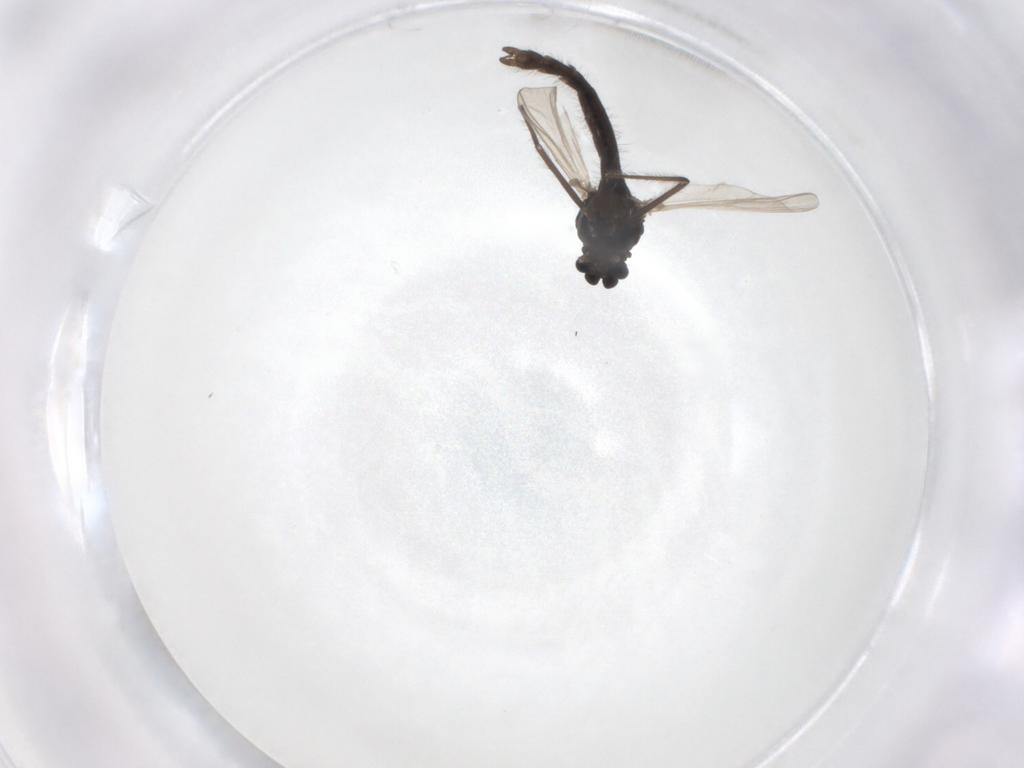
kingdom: Animalia
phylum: Arthropoda
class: Insecta
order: Diptera
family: Chironomidae
